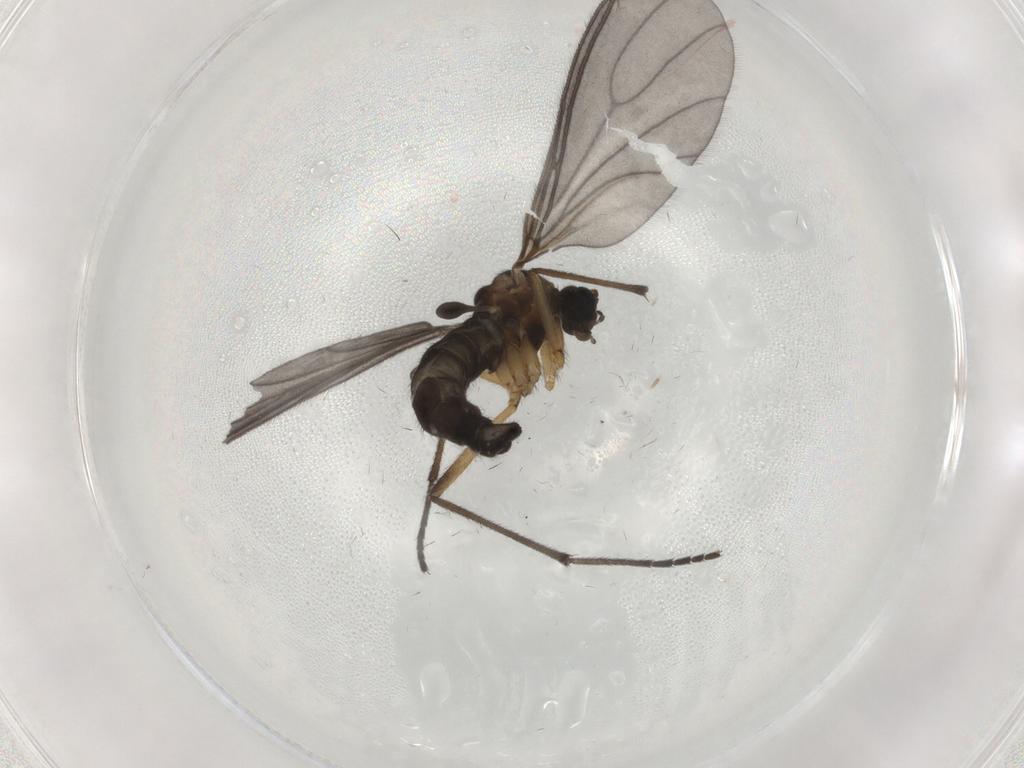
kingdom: Animalia
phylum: Arthropoda
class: Insecta
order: Diptera
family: Sciaridae
